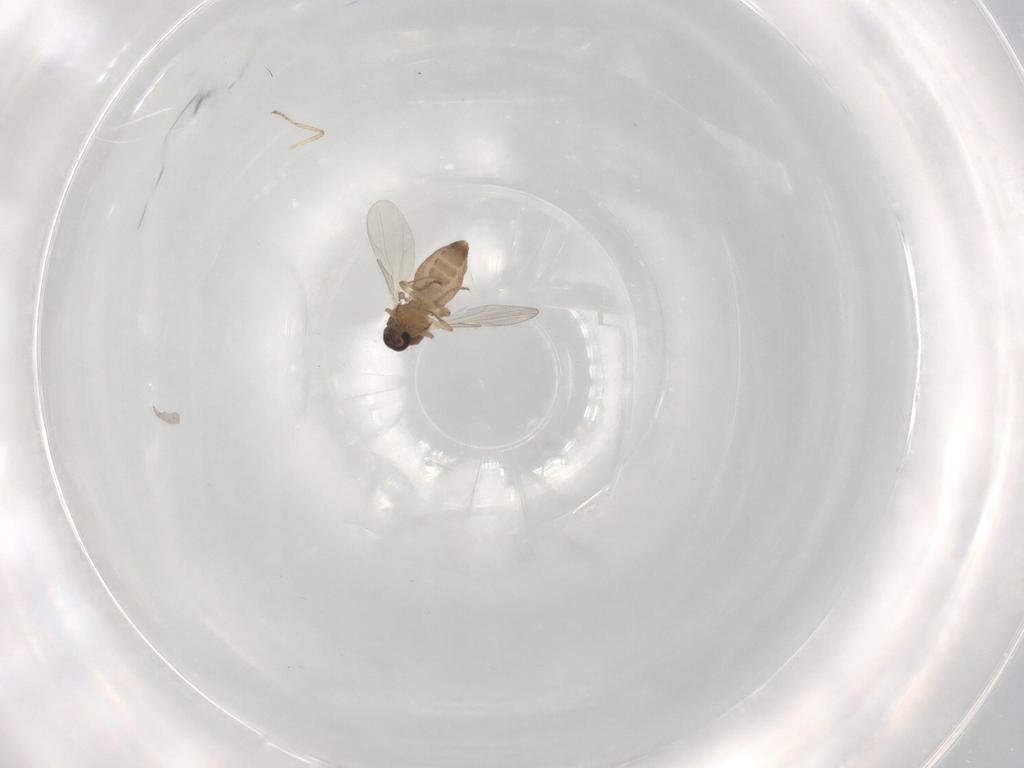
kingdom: Animalia
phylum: Arthropoda
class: Insecta
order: Diptera
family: Ceratopogonidae
